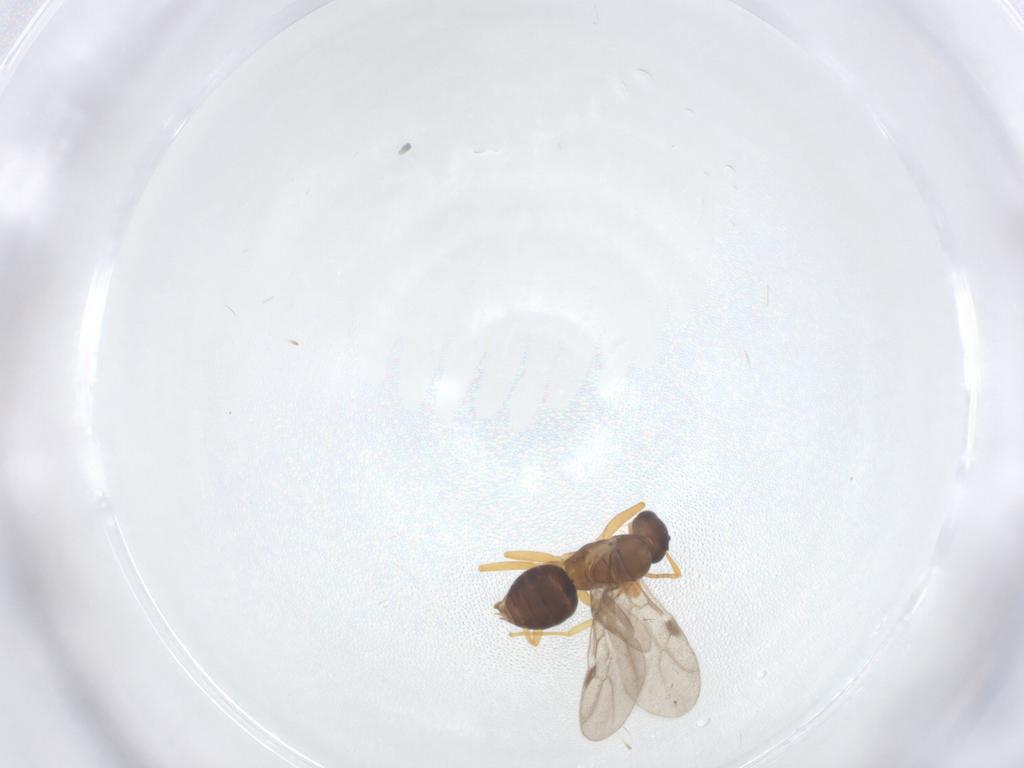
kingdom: Animalia
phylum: Arthropoda
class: Insecta
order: Hymenoptera
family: Formicidae
